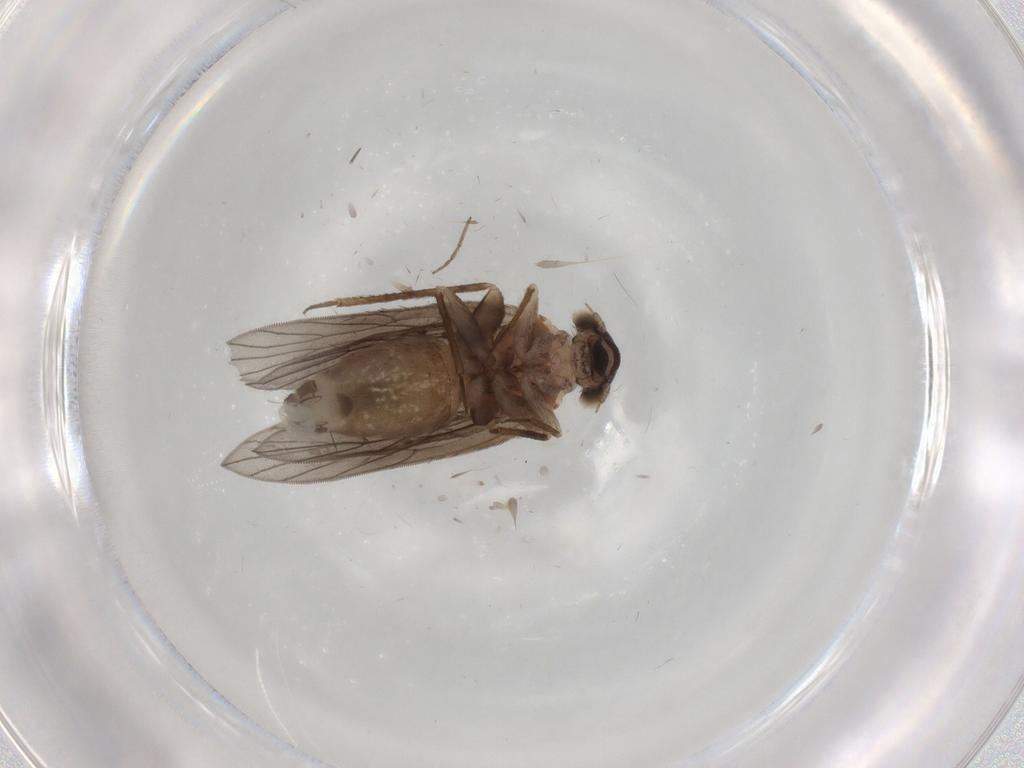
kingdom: Animalia
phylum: Arthropoda
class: Insecta
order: Psocodea
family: Lepidopsocidae
